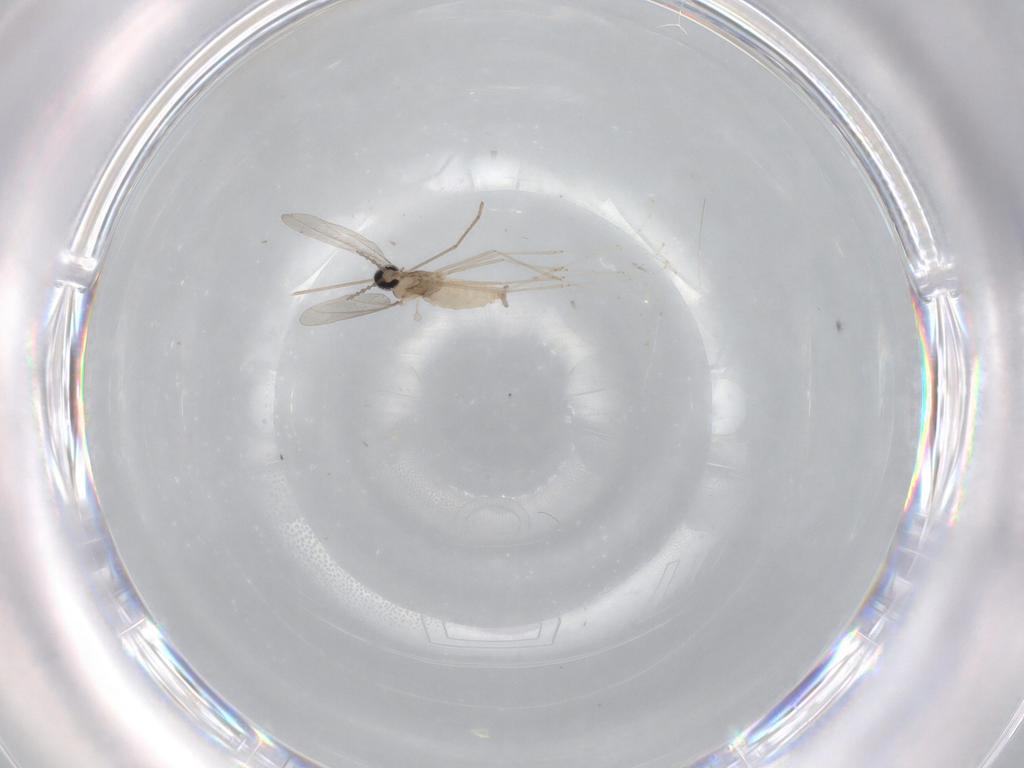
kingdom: Animalia
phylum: Arthropoda
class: Insecta
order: Diptera
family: Cecidomyiidae
